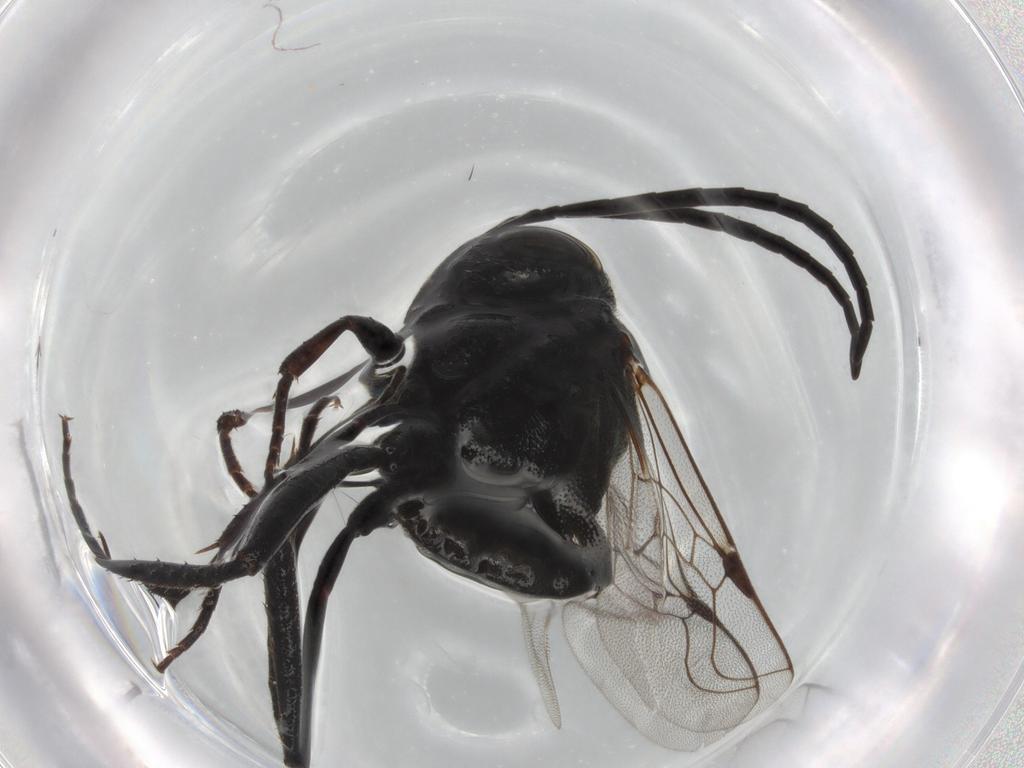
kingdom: Animalia
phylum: Arthropoda
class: Insecta
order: Hymenoptera
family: Evaniidae
